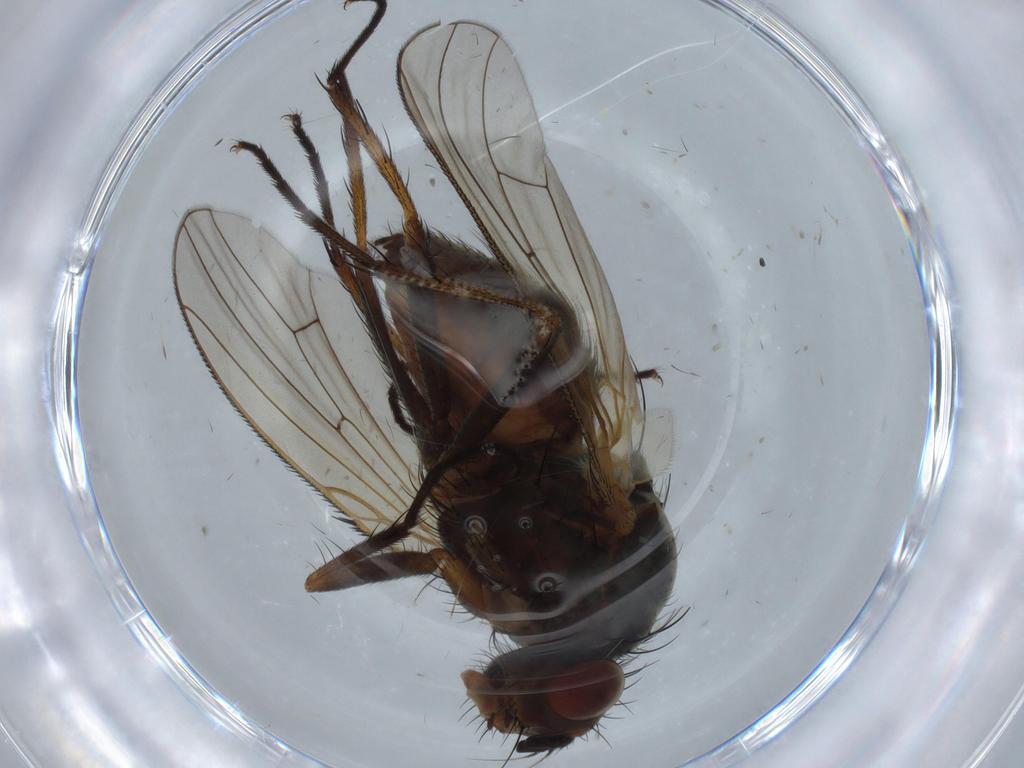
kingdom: Animalia
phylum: Arthropoda
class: Insecta
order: Diptera
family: Anthomyiidae
